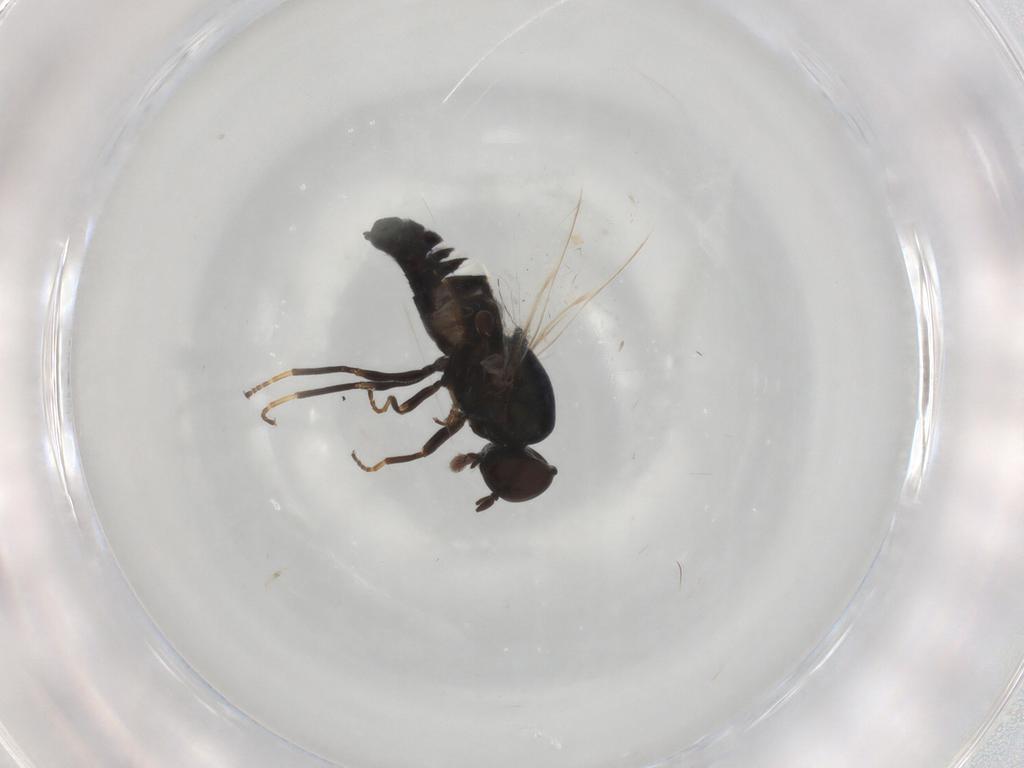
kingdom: Animalia
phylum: Arthropoda
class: Insecta
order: Diptera
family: Scenopinidae
